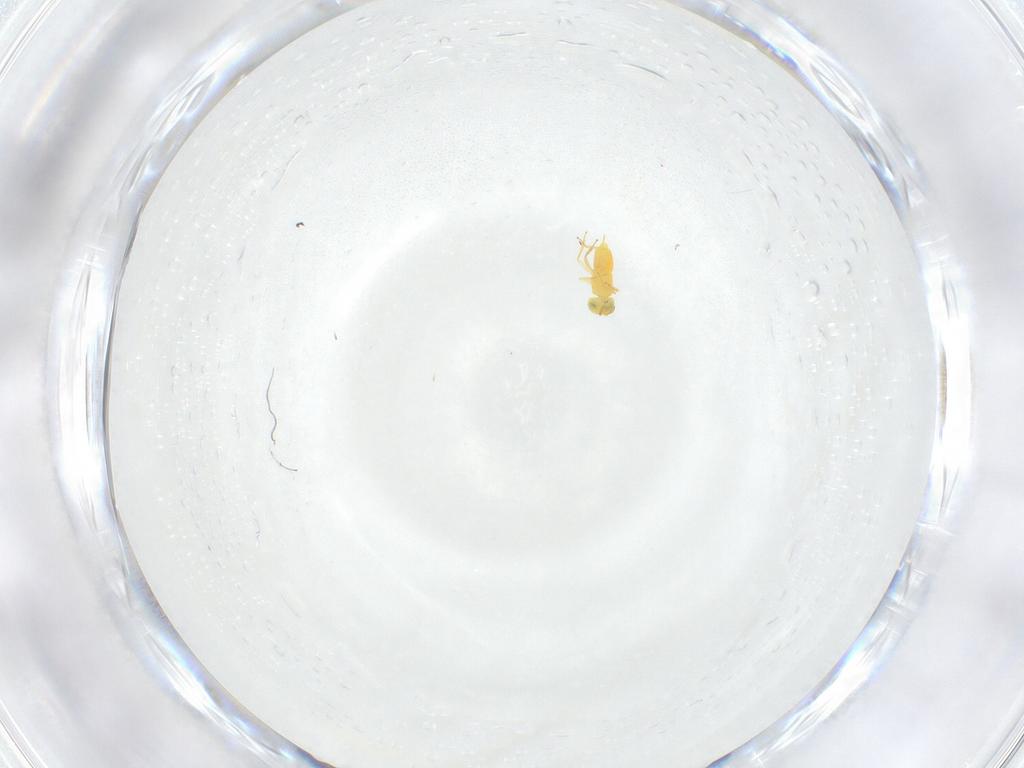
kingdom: Animalia
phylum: Arthropoda
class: Insecta
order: Hymenoptera
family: Aphelinidae
